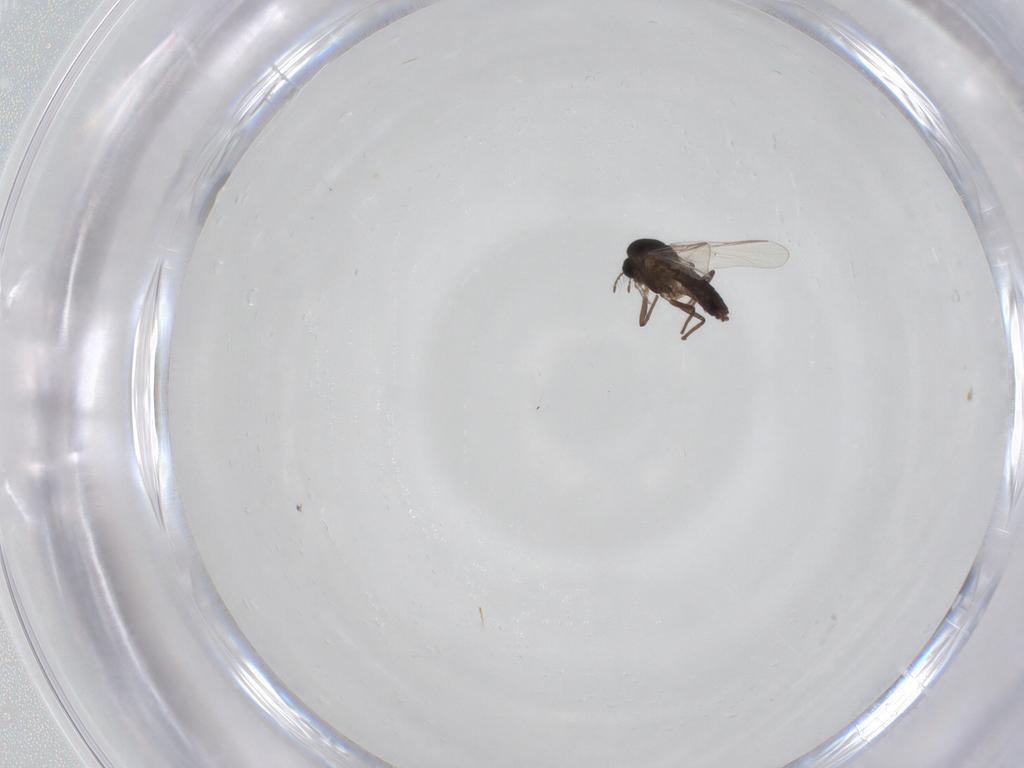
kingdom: Animalia
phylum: Arthropoda
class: Insecta
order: Diptera
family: Chironomidae
